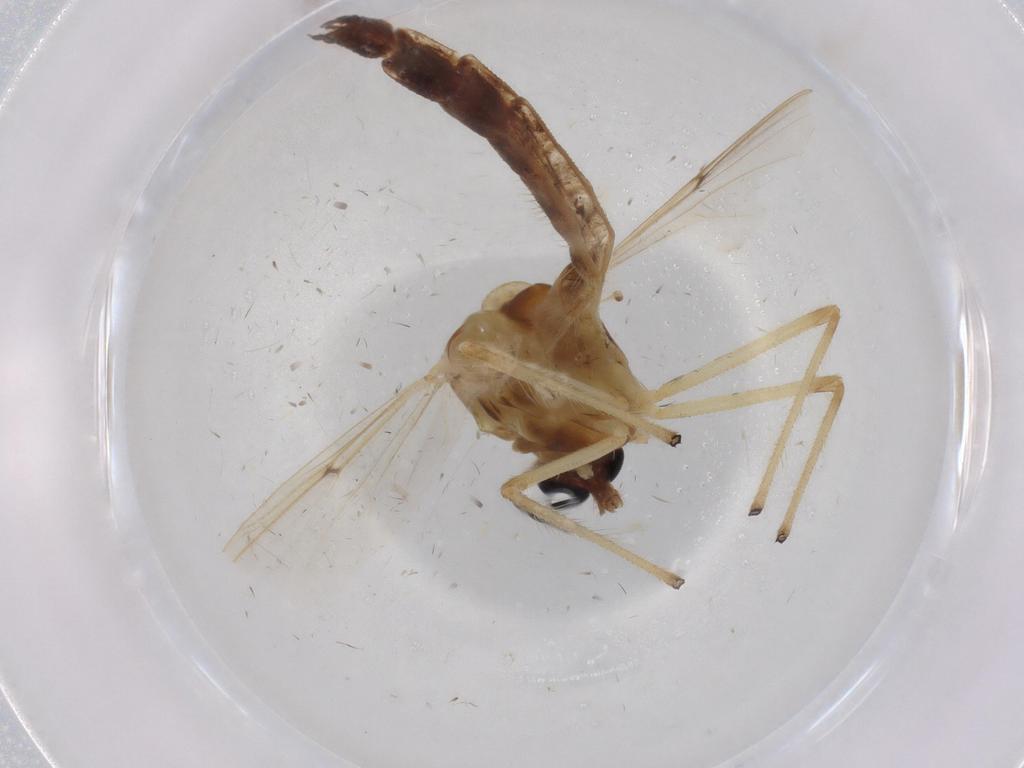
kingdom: Animalia
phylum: Arthropoda
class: Insecta
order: Diptera
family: Phoridae
